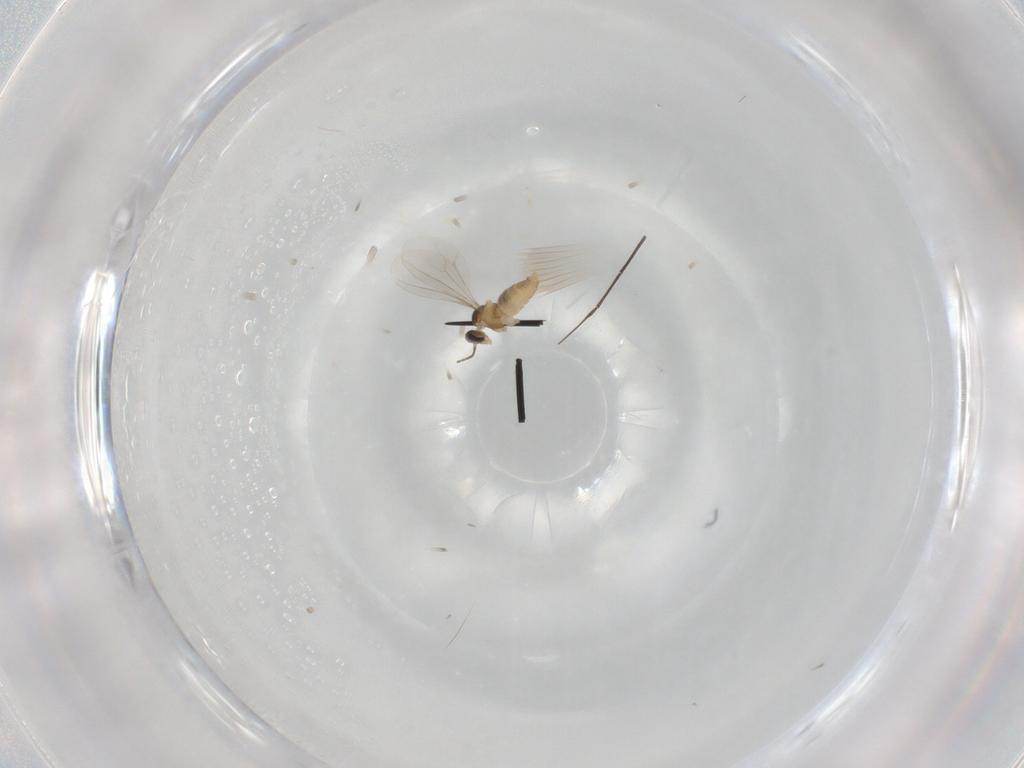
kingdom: Animalia
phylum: Arthropoda
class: Insecta
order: Diptera
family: Cecidomyiidae
